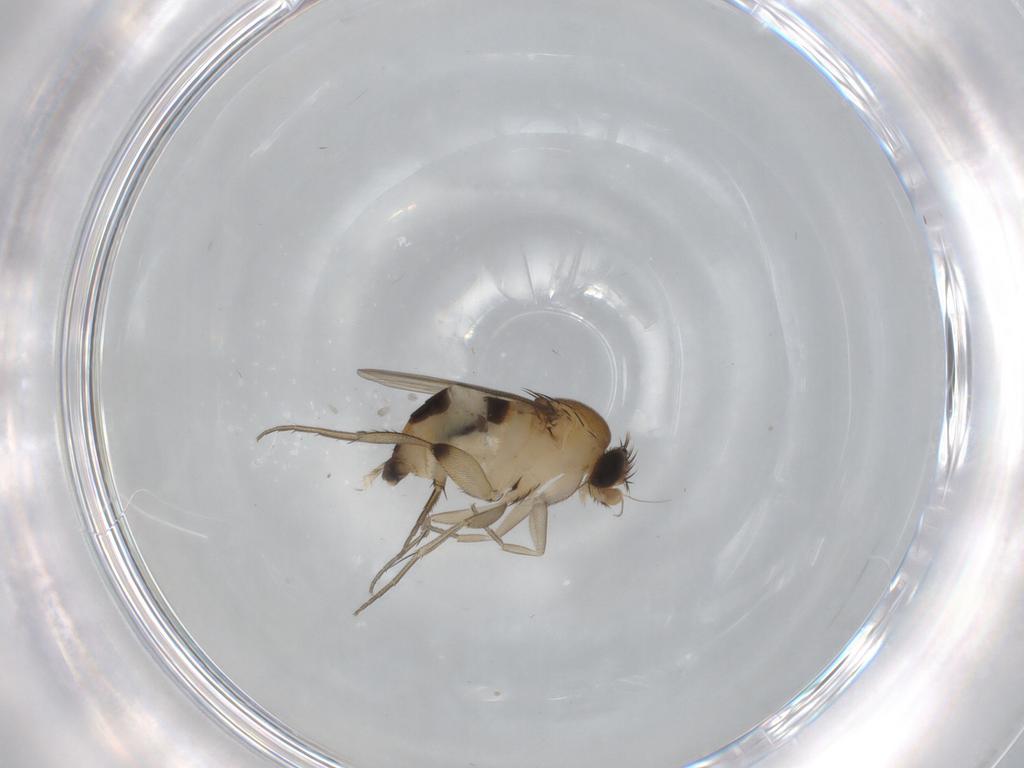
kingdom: Animalia
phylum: Arthropoda
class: Insecta
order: Diptera
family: Phoridae
